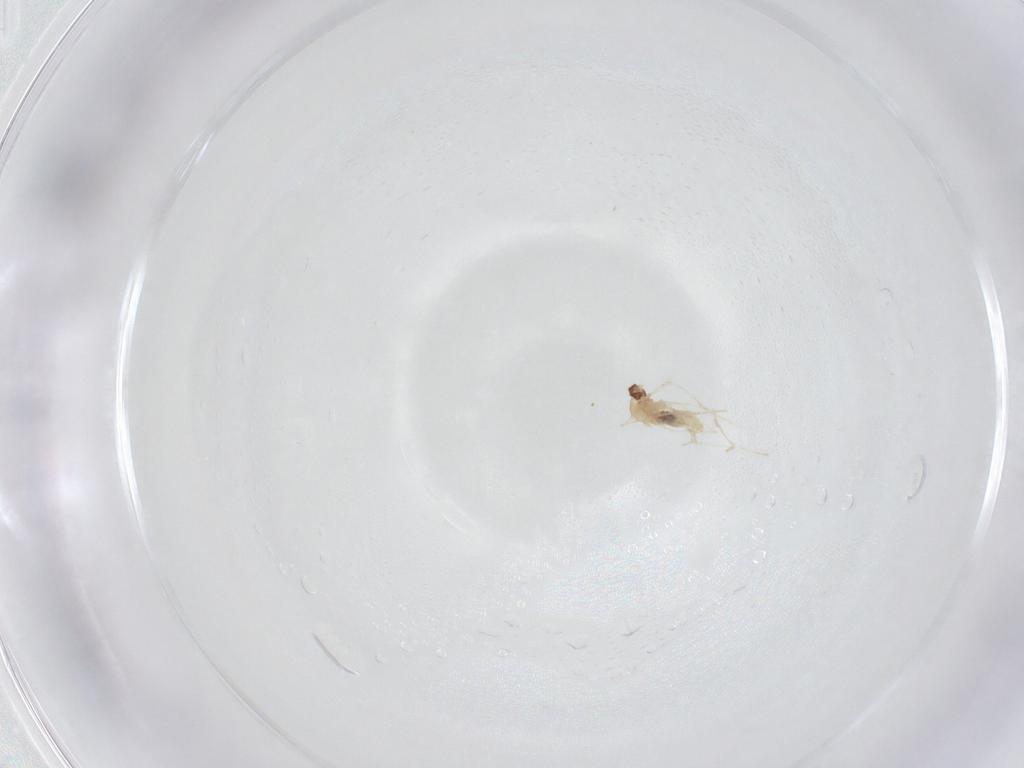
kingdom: Animalia
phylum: Arthropoda
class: Insecta
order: Diptera
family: Cecidomyiidae
